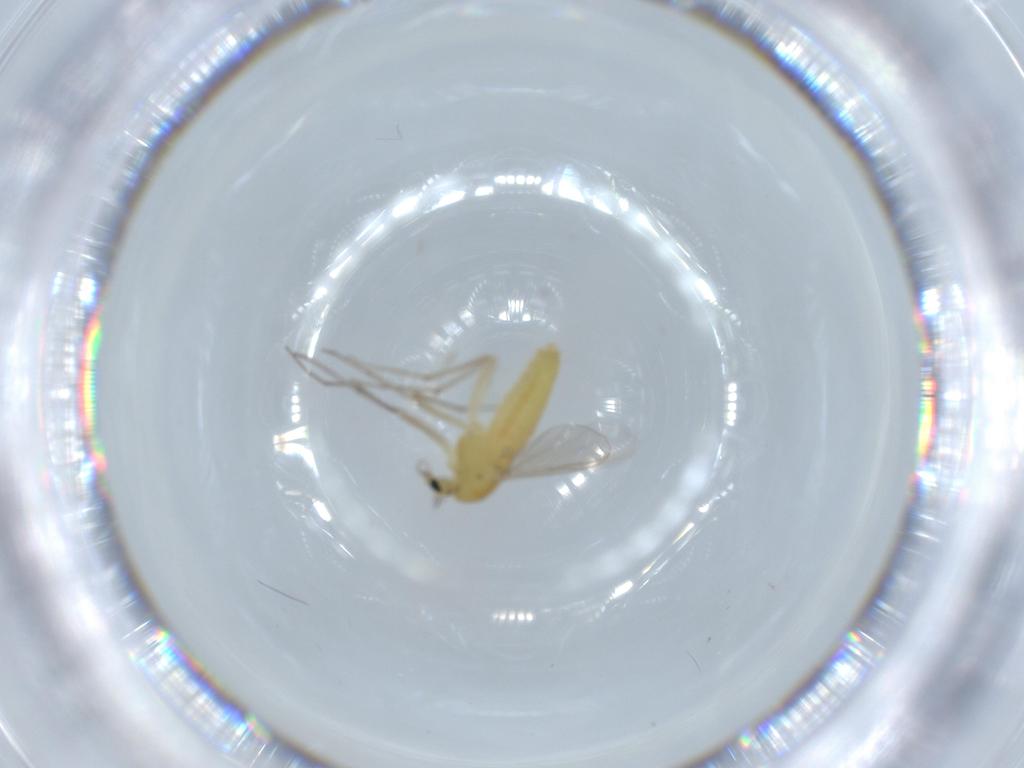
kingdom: Animalia
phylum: Arthropoda
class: Insecta
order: Diptera
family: Chironomidae
